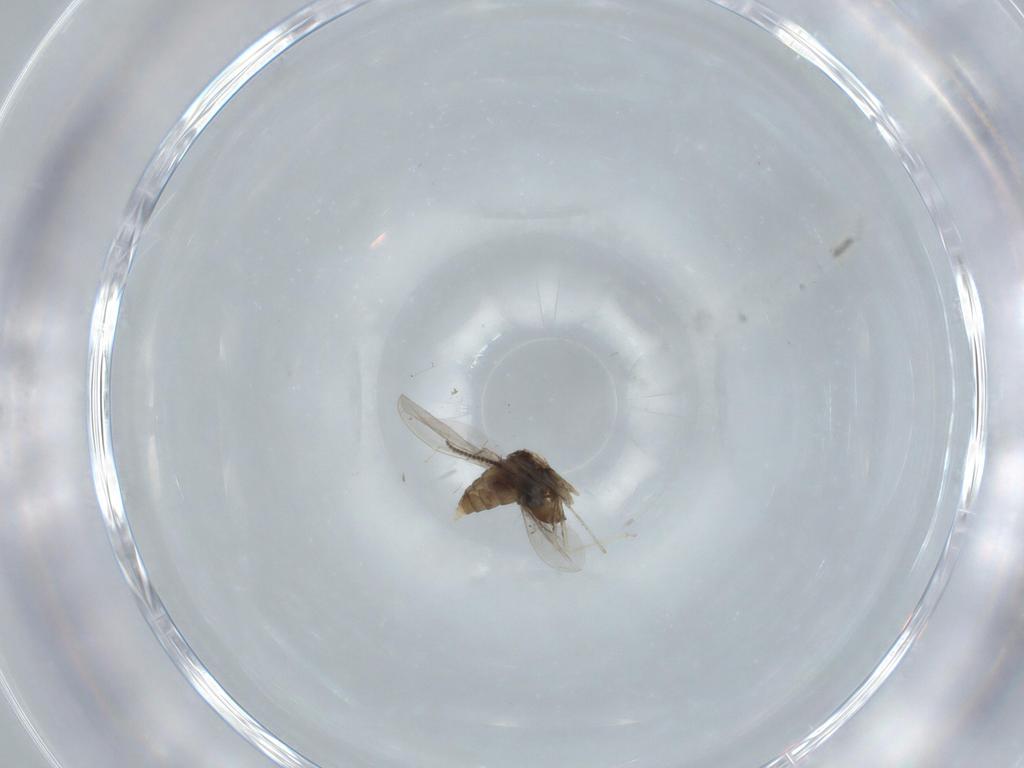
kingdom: Animalia
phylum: Arthropoda
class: Insecta
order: Diptera
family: Cecidomyiidae
